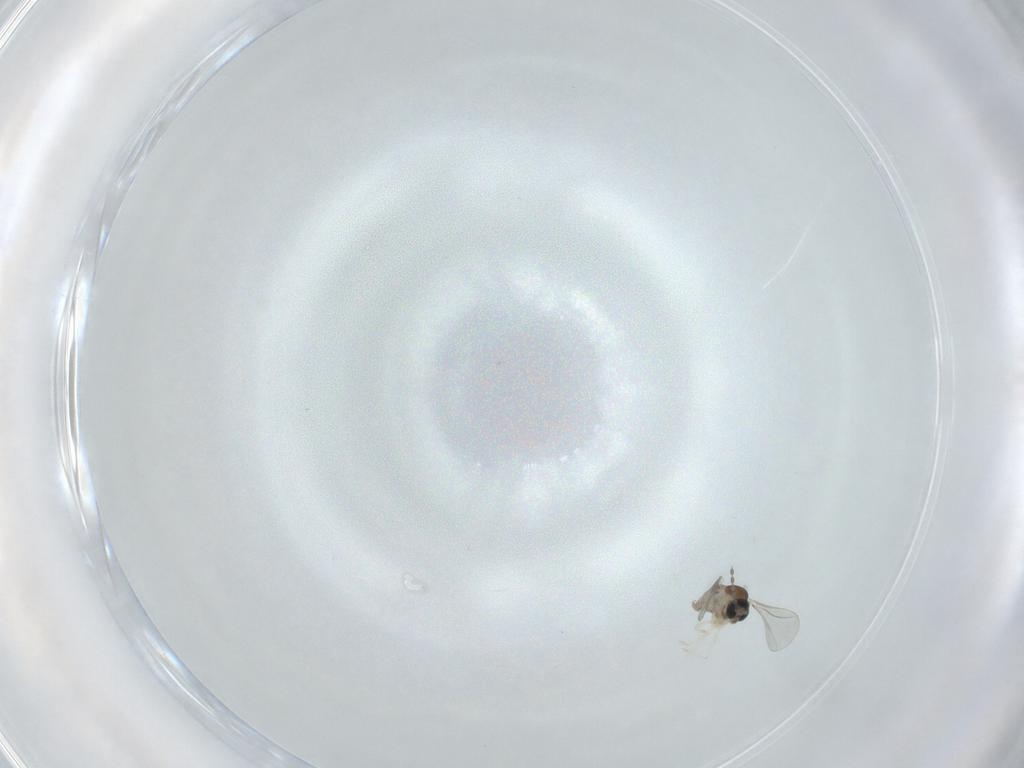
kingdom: Animalia
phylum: Arthropoda
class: Insecta
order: Diptera
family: Cecidomyiidae
